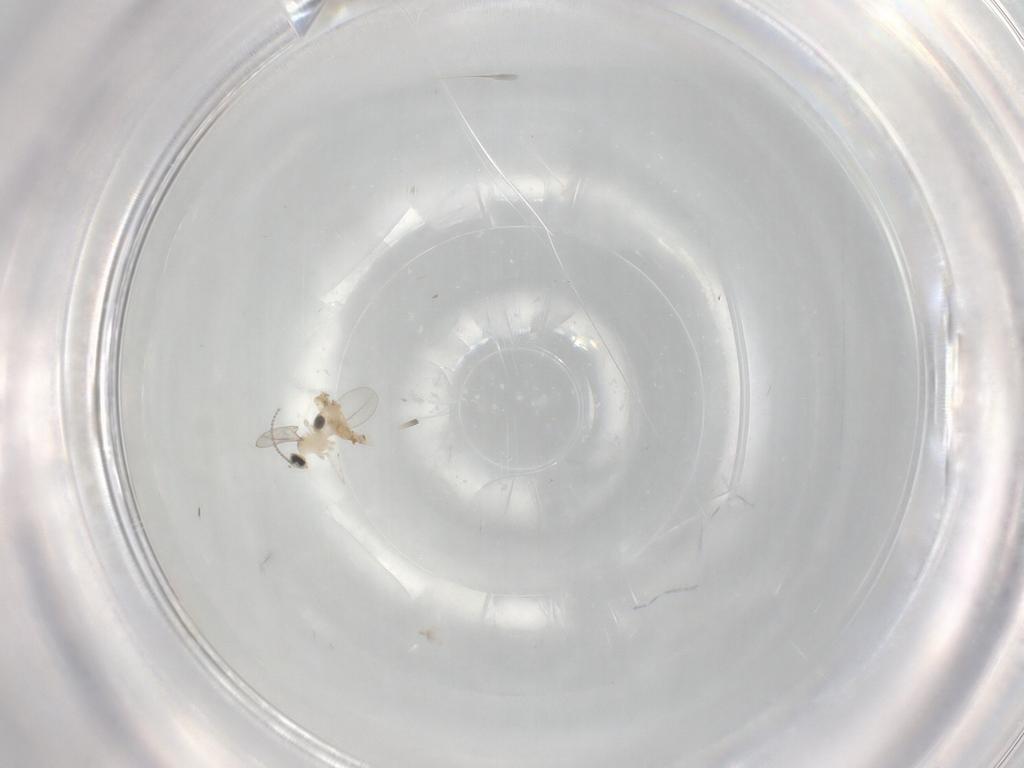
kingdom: Animalia
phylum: Arthropoda
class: Insecta
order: Diptera
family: Cecidomyiidae
